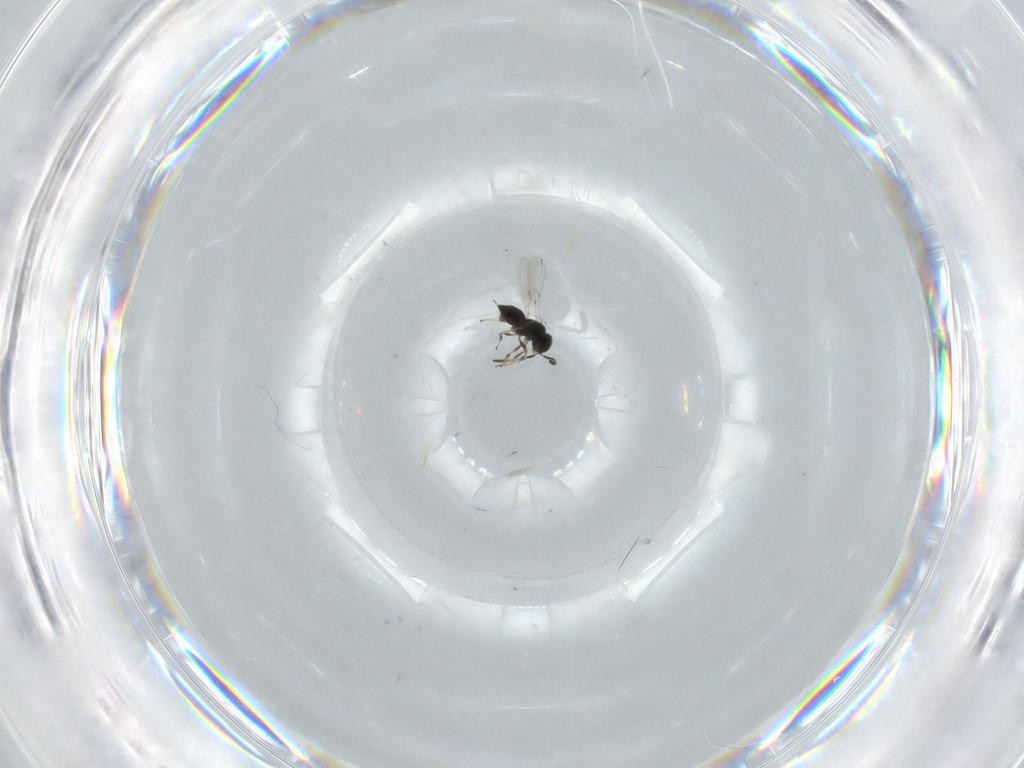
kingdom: Animalia
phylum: Arthropoda
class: Insecta
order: Hymenoptera
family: Scelionidae
